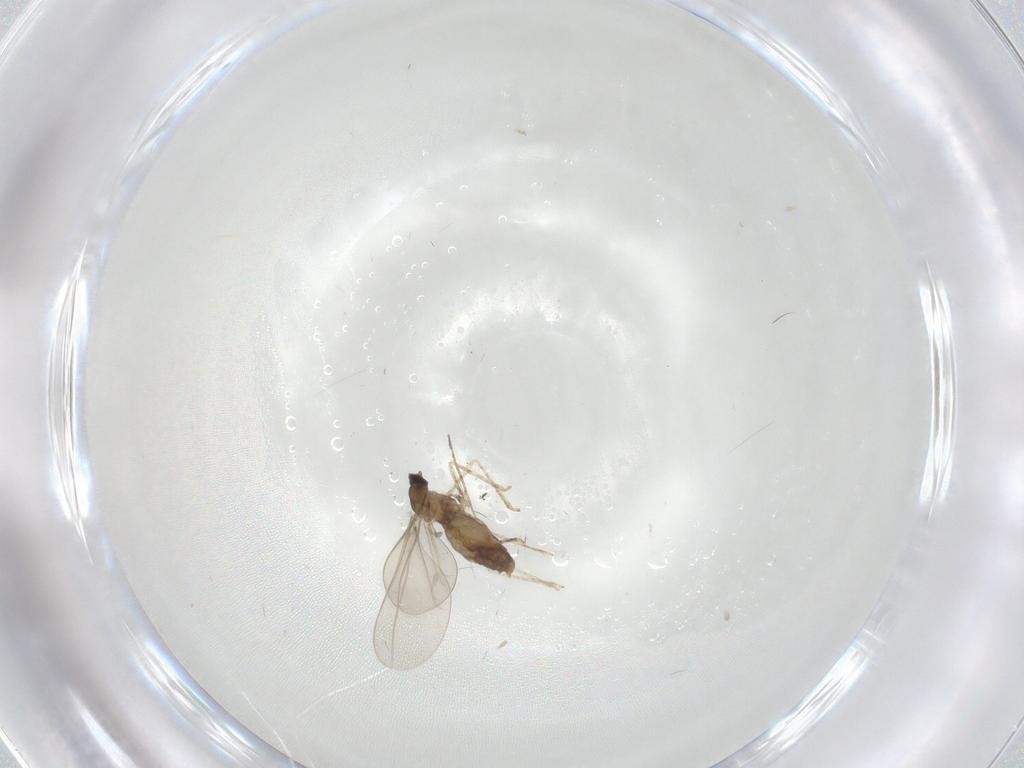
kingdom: Animalia
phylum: Arthropoda
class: Insecta
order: Diptera
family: Cecidomyiidae
